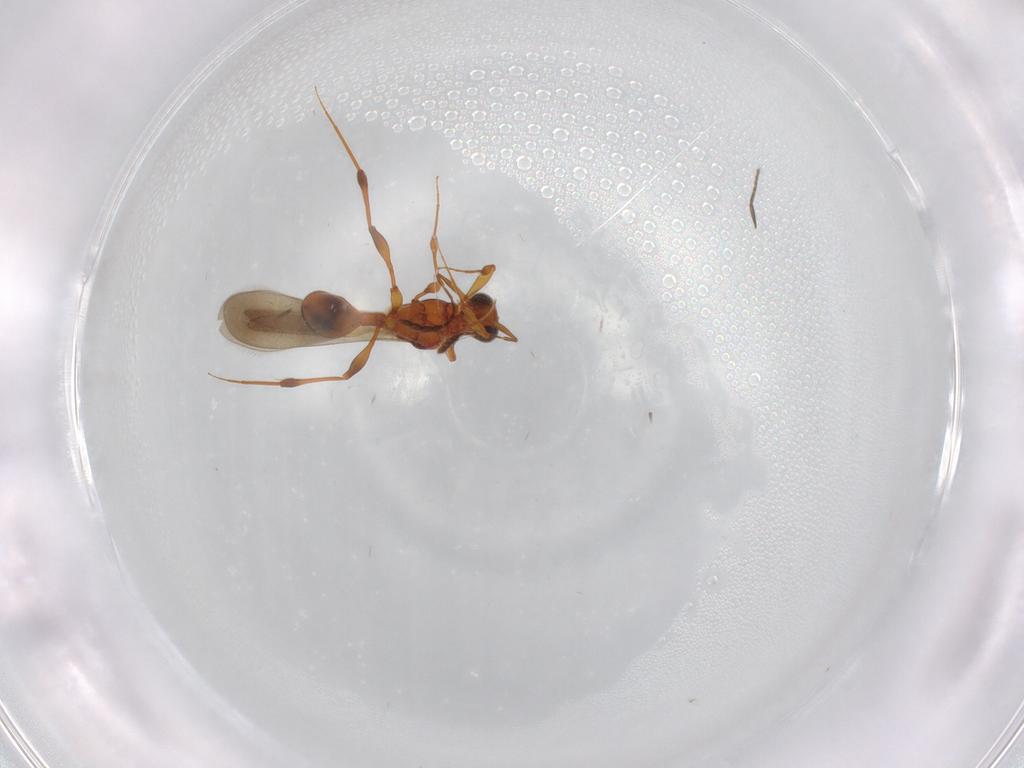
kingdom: Animalia
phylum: Arthropoda
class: Insecta
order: Hymenoptera
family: Platygastridae
